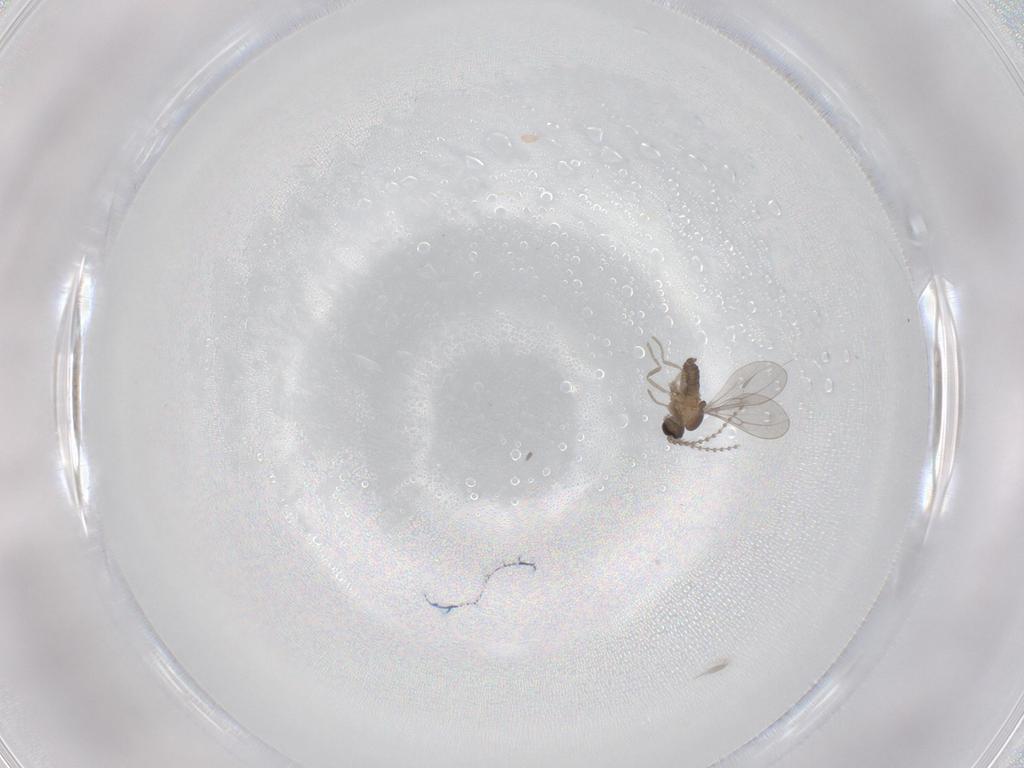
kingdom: Animalia
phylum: Arthropoda
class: Insecta
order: Diptera
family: Cecidomyiidae
